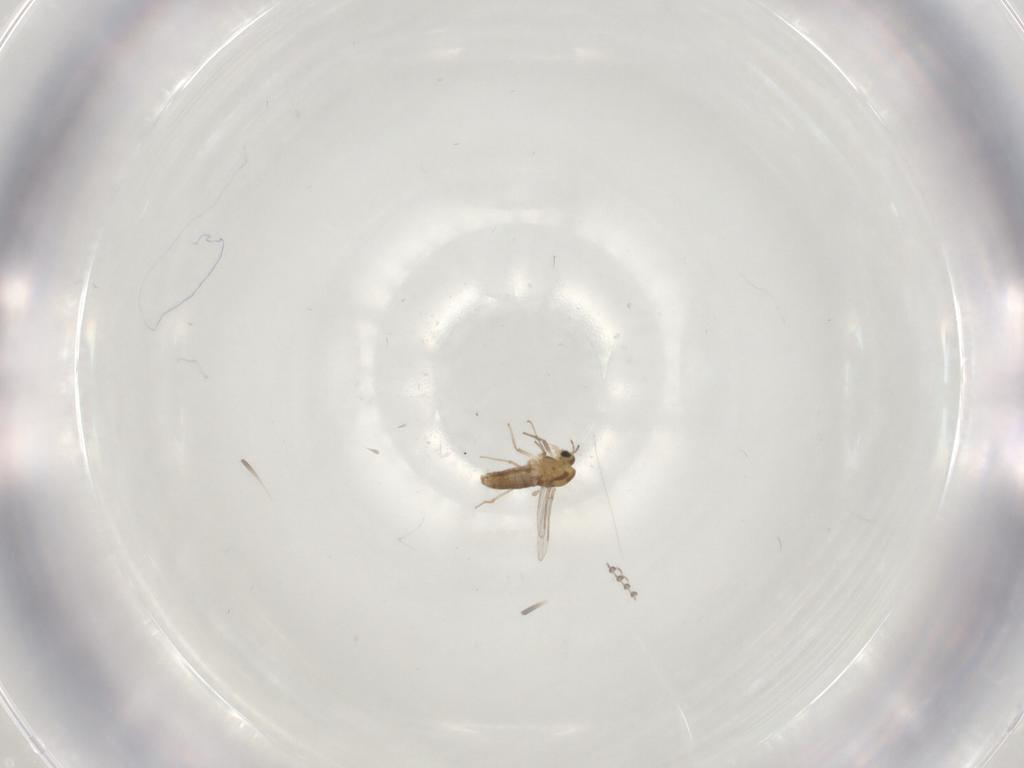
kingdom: Animalia
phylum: Arthropoda
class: Insecta
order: Diptera
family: Chironomidae
